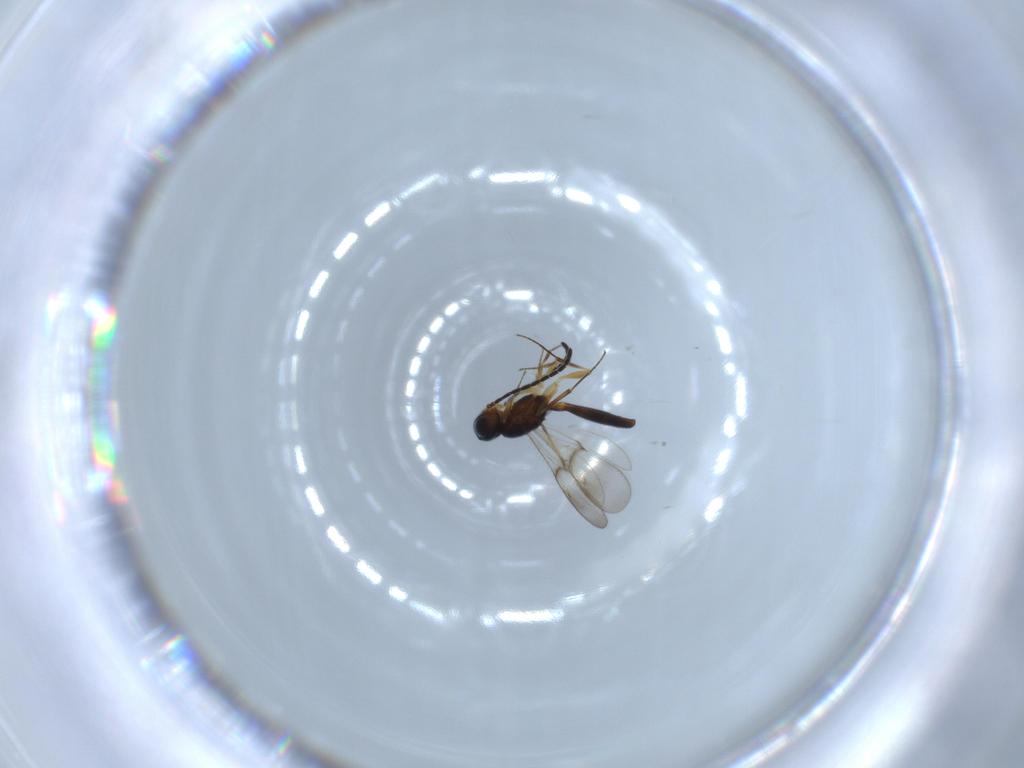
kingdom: Animalia
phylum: Arthropoda
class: Insecta
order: Hymenoptera
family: Scelionidae
